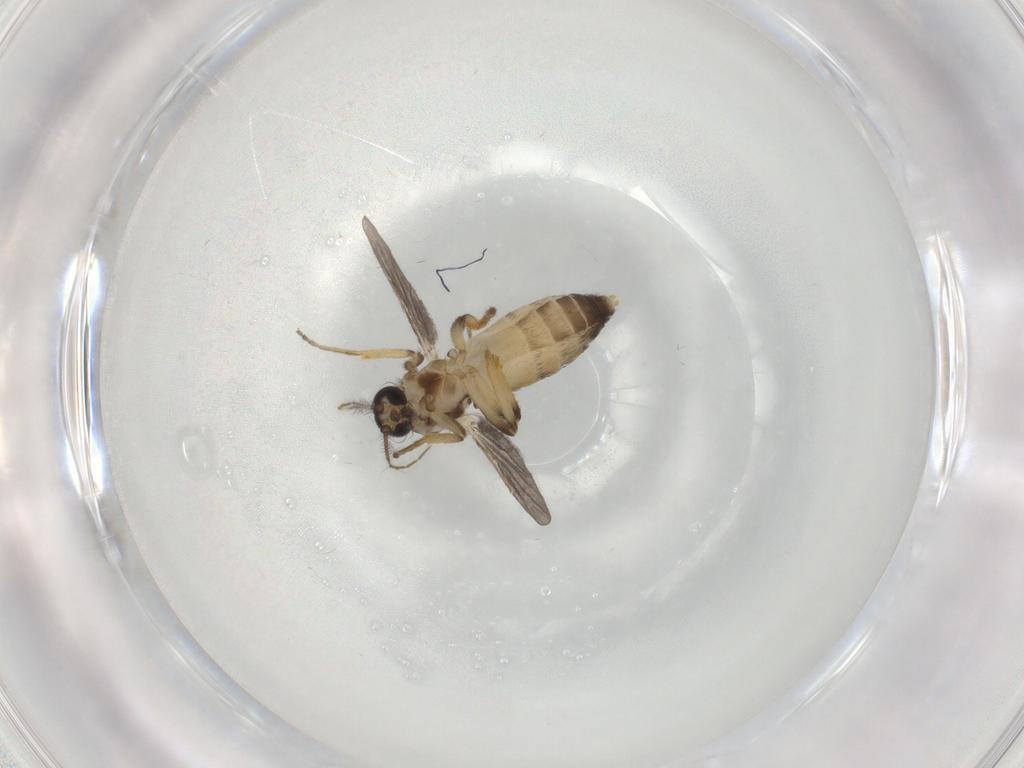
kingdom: Animalia
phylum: Arthropoda
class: Insecta
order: Diptera
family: Ceratopogonidae
